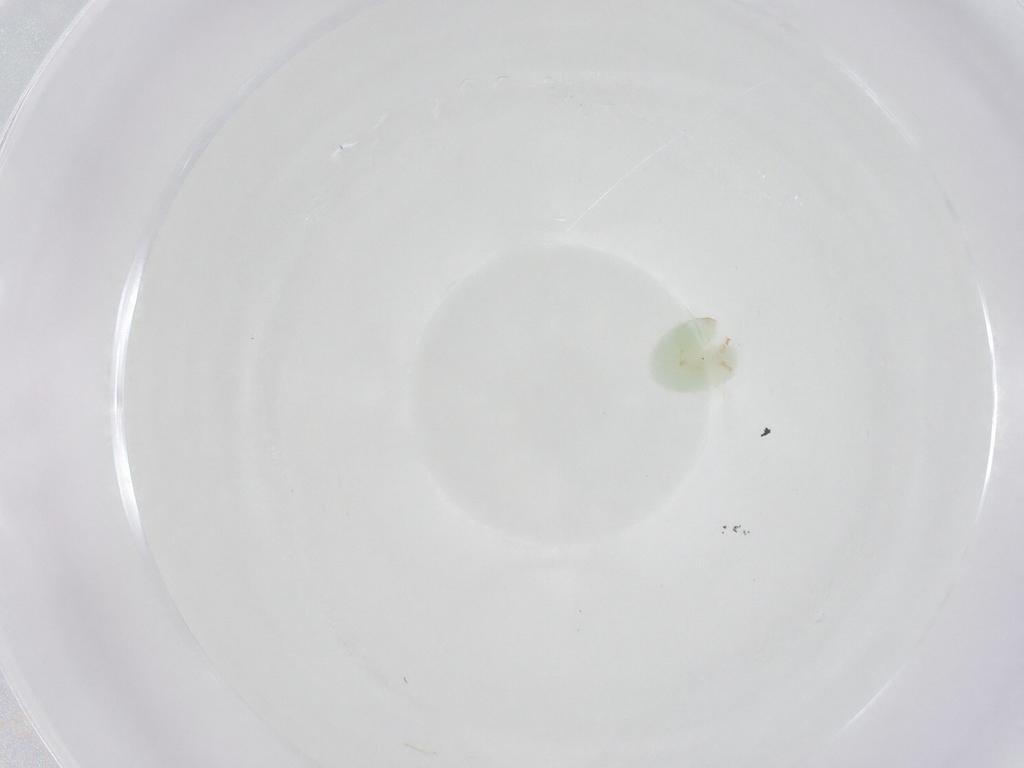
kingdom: Animalia
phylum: Arthropoda
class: Insecta
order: Hymenoptera
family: Dryinidae
